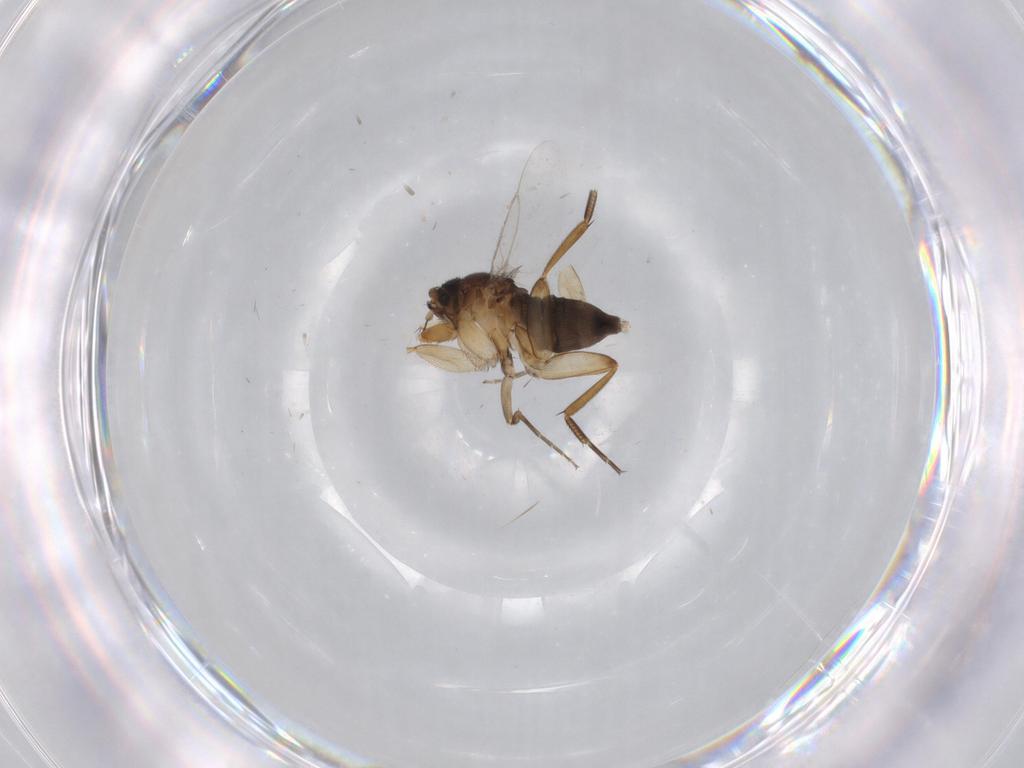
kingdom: Animalia
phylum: Arthropoda
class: Insecta
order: Diptera
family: Phoridae
